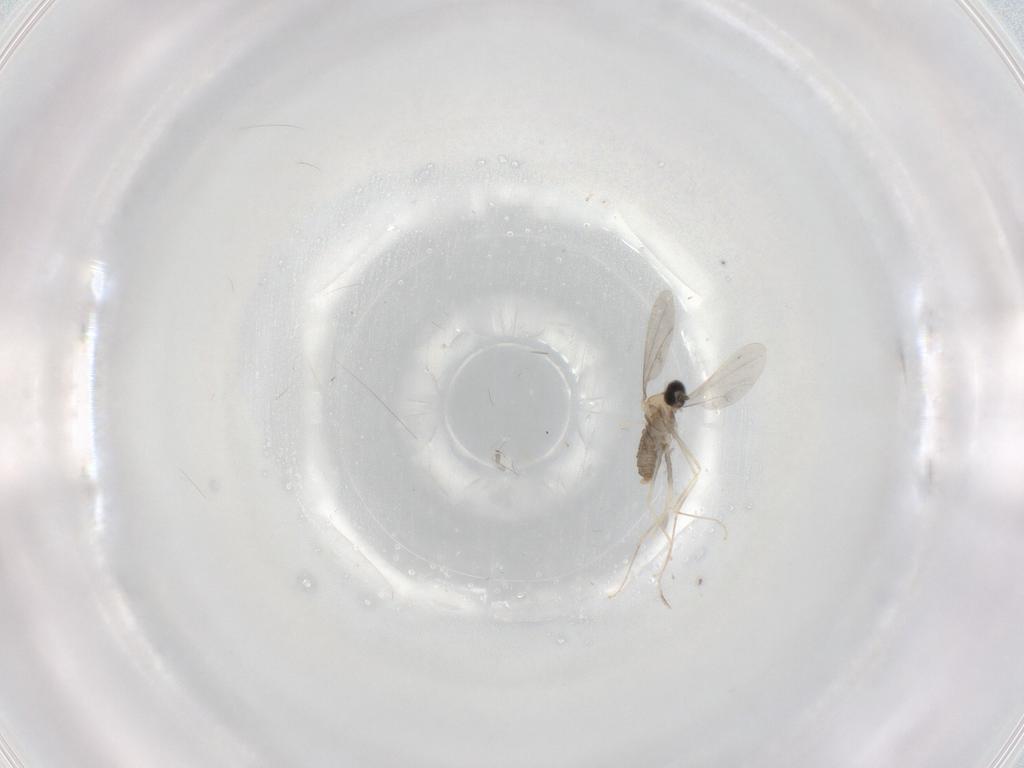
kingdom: Animalia
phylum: Arthropoda
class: Insecta
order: Diptera
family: Cecidomyiidae
